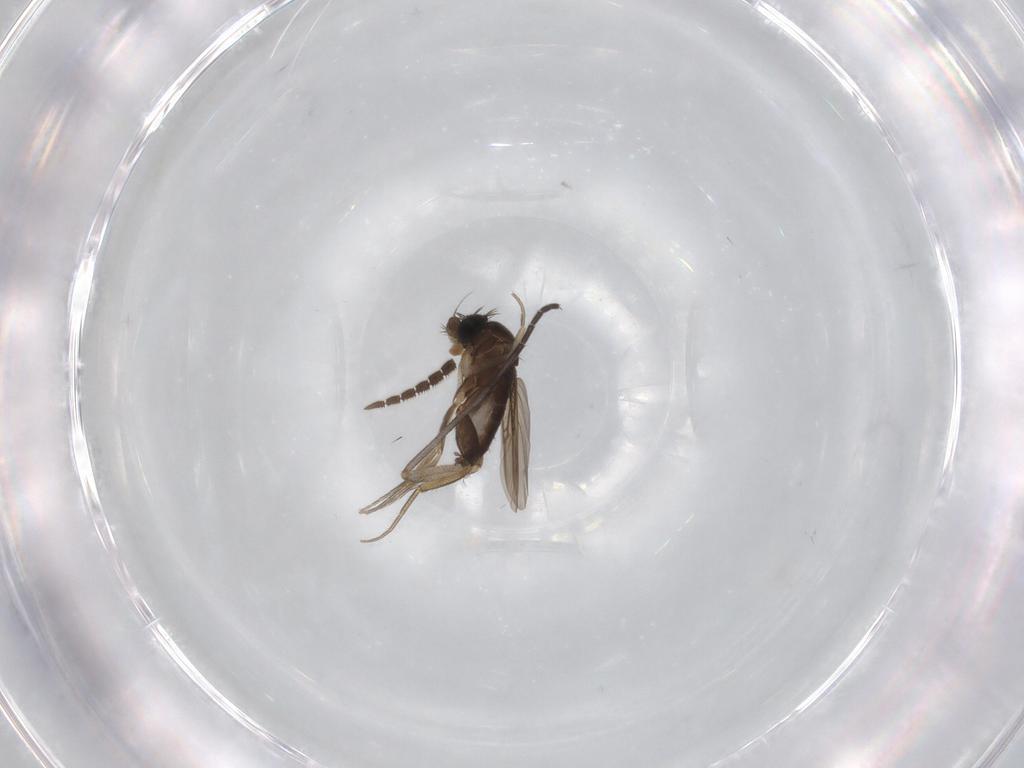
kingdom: Animalia
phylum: Arthropoda
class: Insecta
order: Diptera
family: Phoridae
